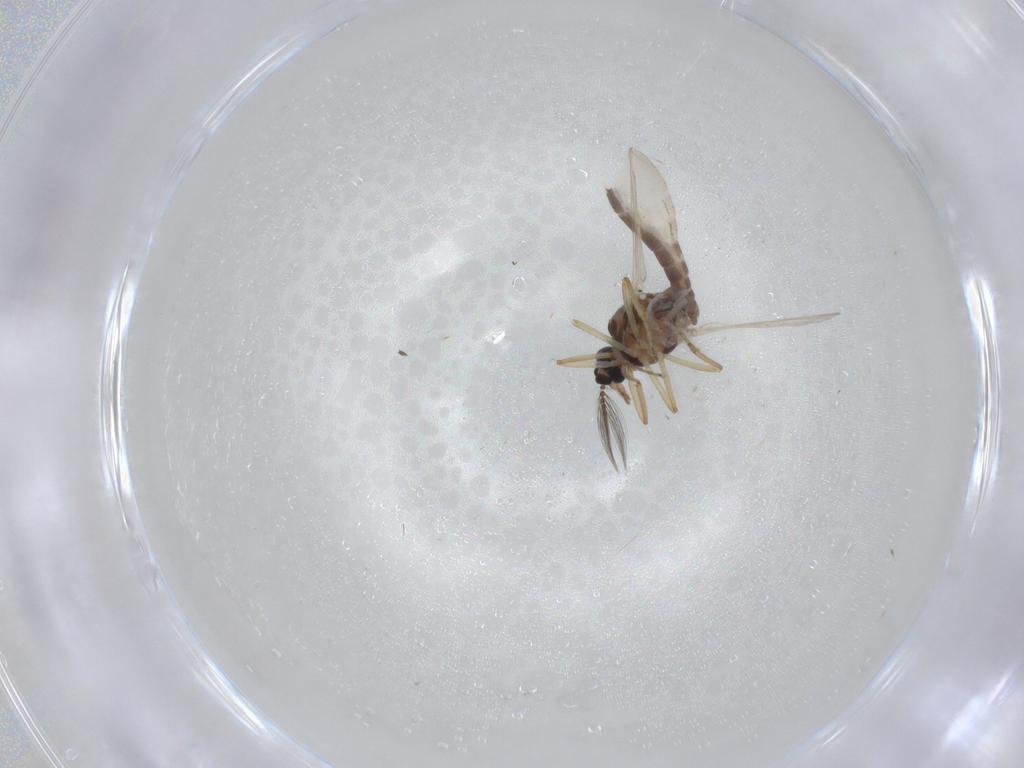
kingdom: Animalia
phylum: Arthropoda
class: Insecta
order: Diptera
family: Ceratopogonidae
